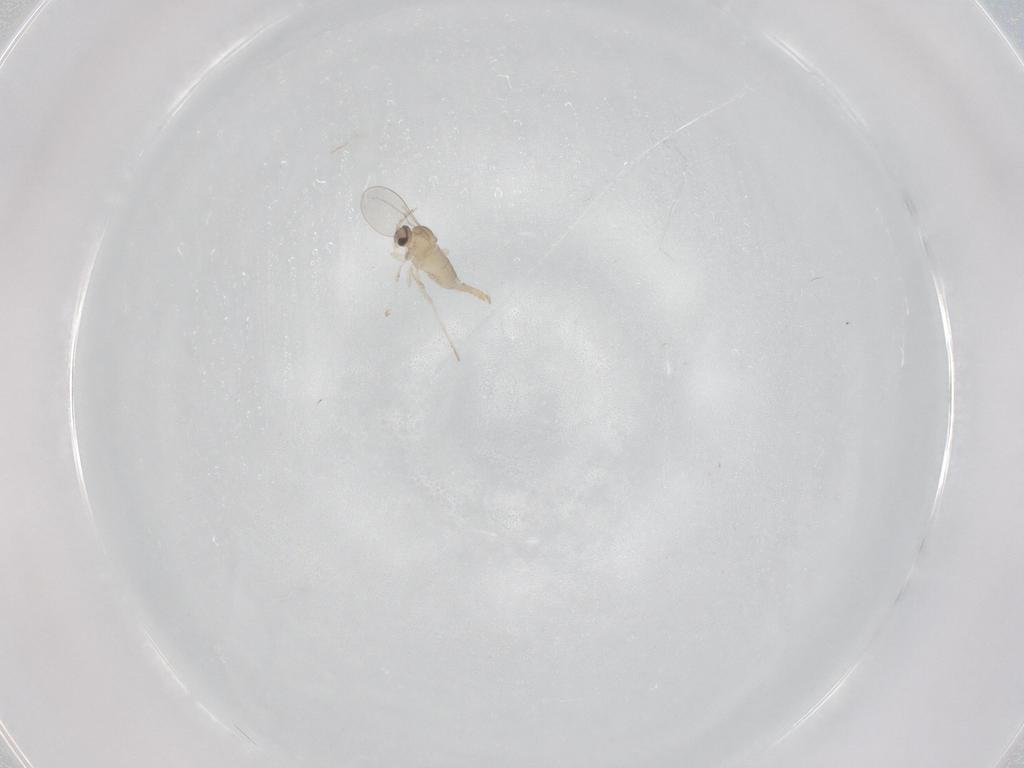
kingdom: Animalia
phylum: Arthropoda
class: Insecta
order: Diptera
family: Cecidomyiidae
